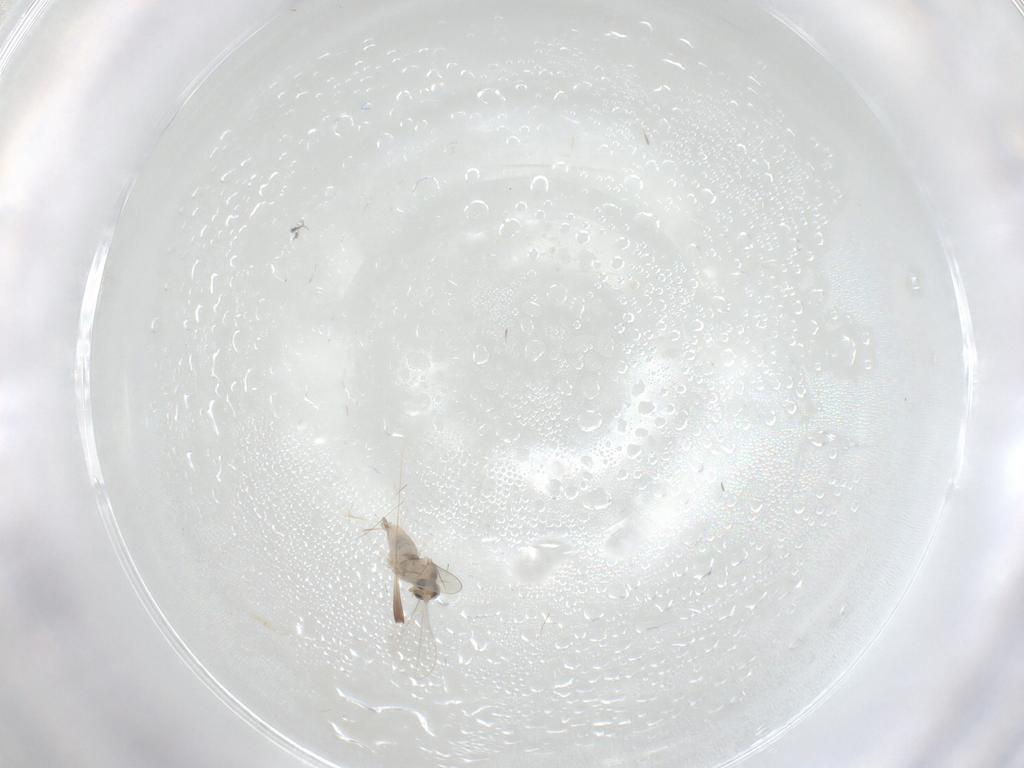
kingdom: Animalia
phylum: Arthropoda
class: Insecta
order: Diptera
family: Cecidomyiidae
